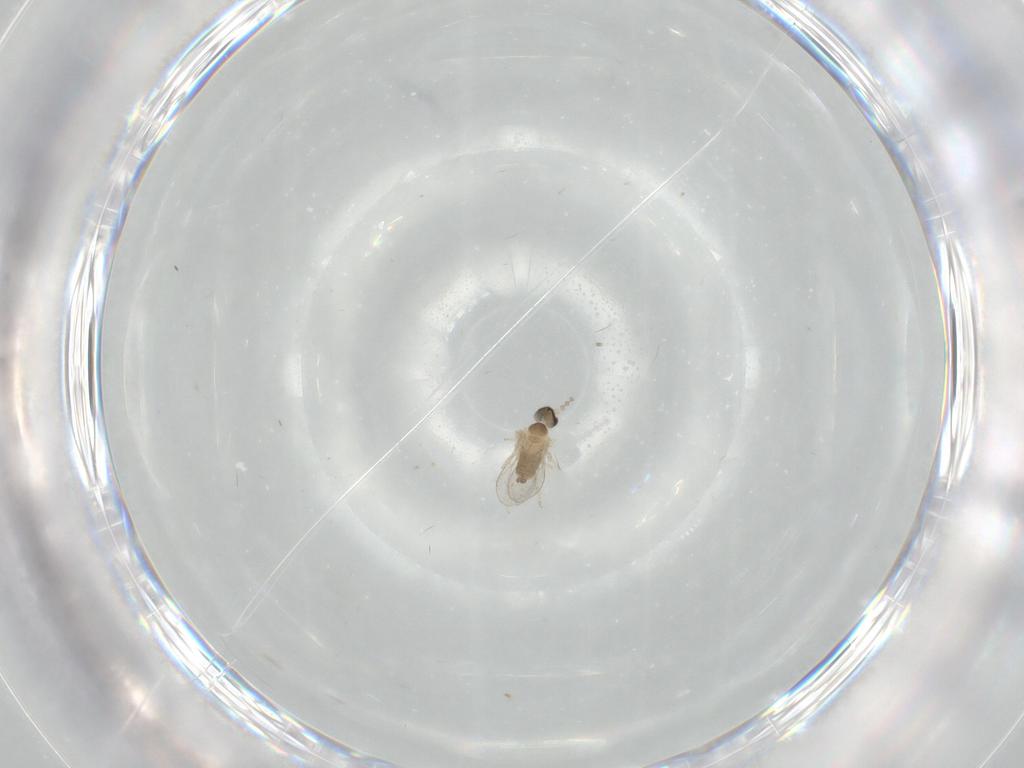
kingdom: Animalia
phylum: Arthropoda
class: Insecta
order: Diptera
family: Cecidomyiidae
